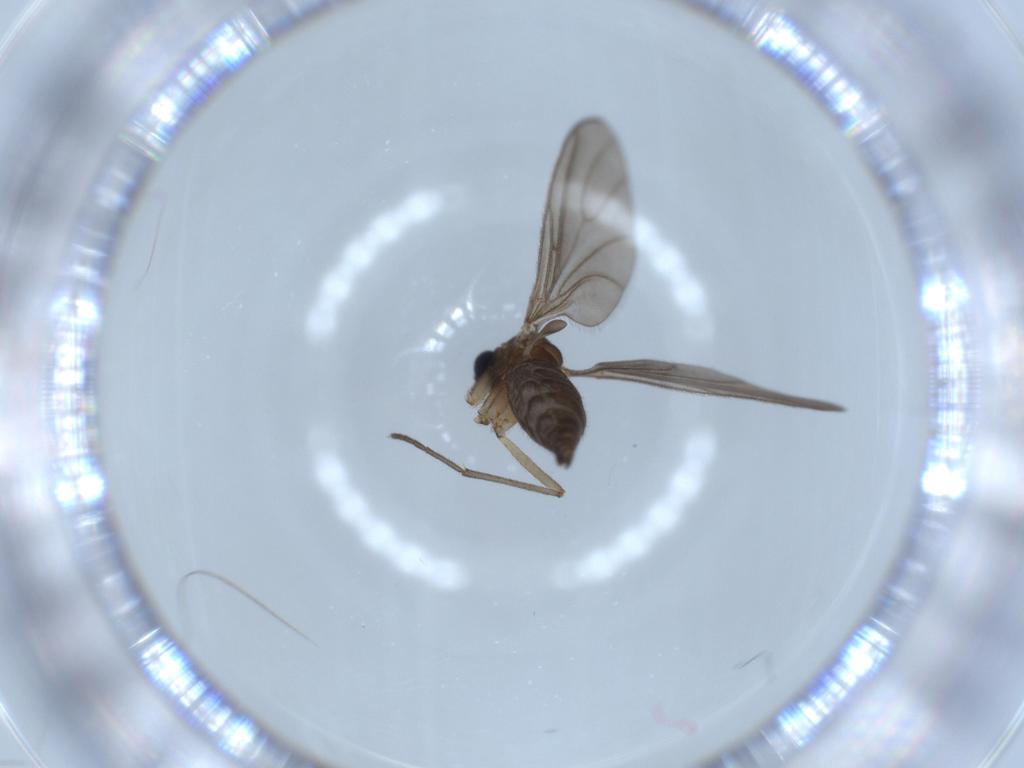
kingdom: Animalia
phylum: Arthropoda
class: Insecta
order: Diptera
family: Sciaridae
